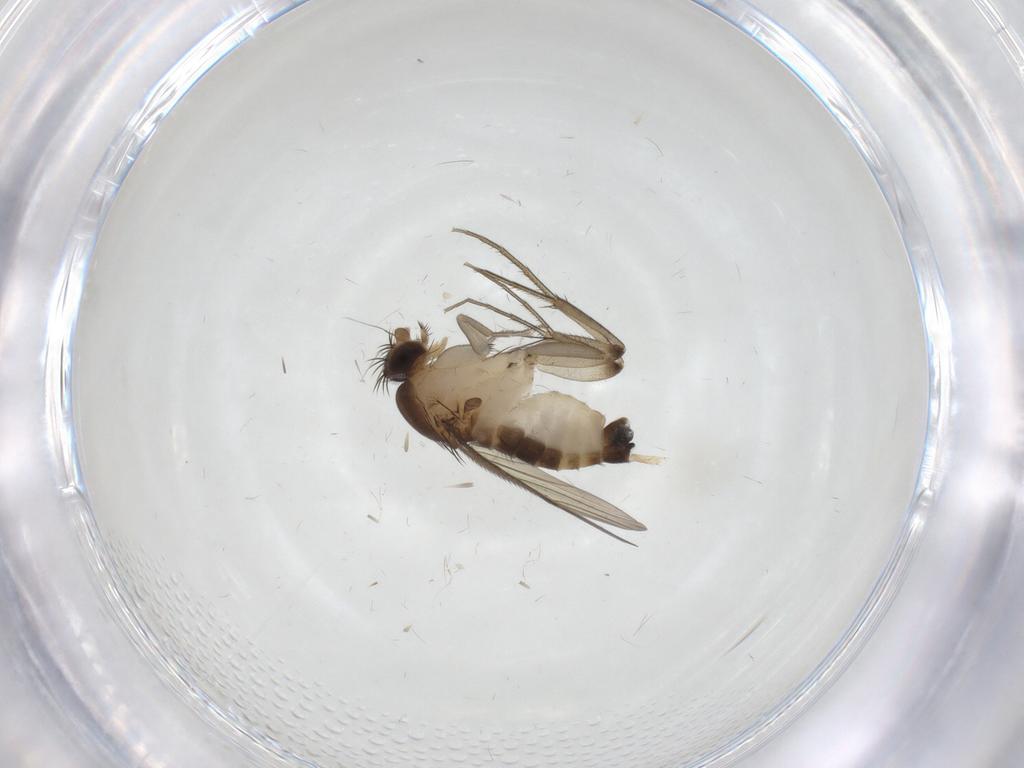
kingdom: Animalia
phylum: Arthropoda
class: Insecta
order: Diptera
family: Phoridae
